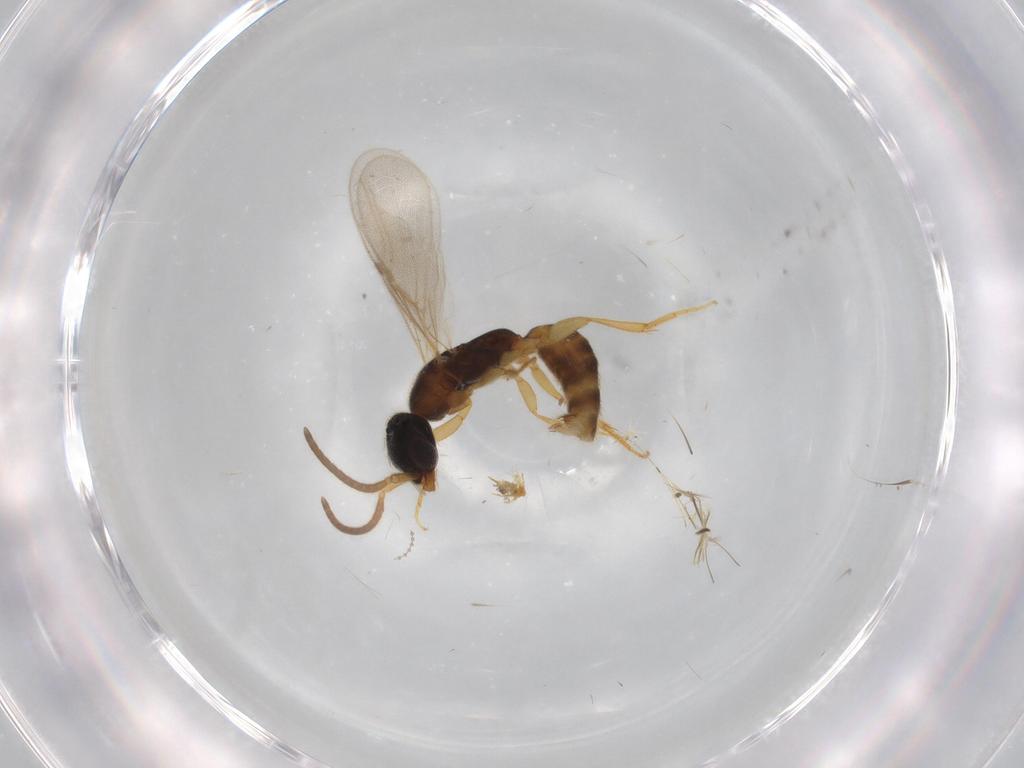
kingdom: Animalia
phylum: Arthropoda
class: Insecta
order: Hymenoptera
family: Bethylidae
